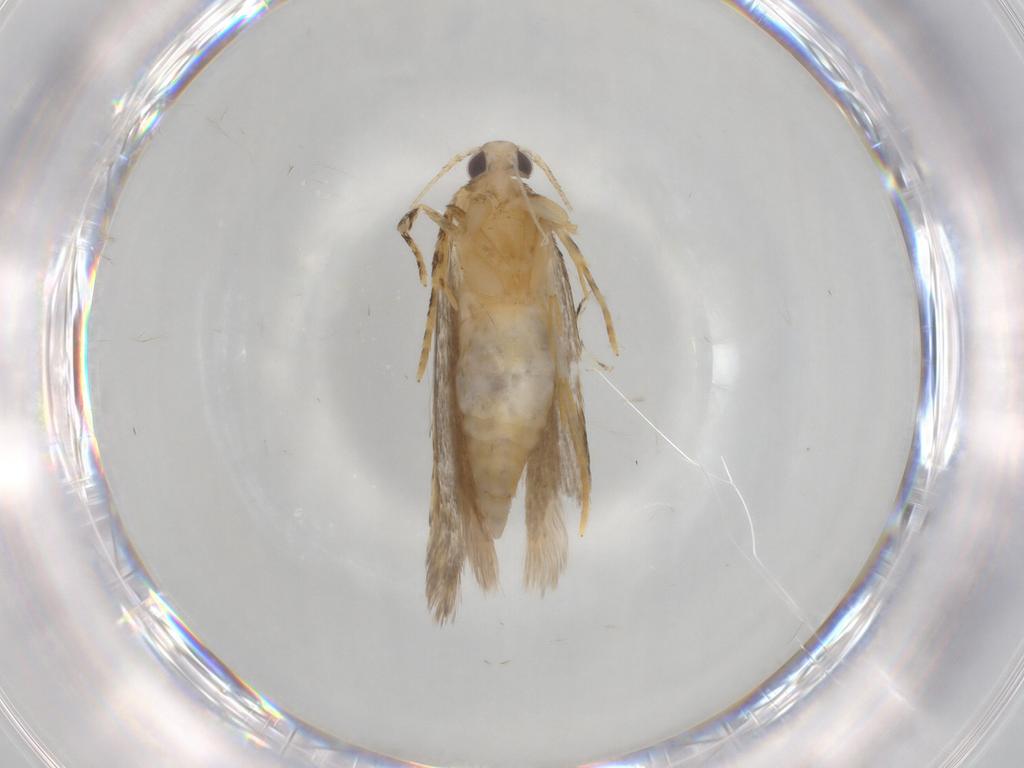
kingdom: Animalia
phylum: Arthropoda
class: Insecta
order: Lepidoptera
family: Autostichidae
